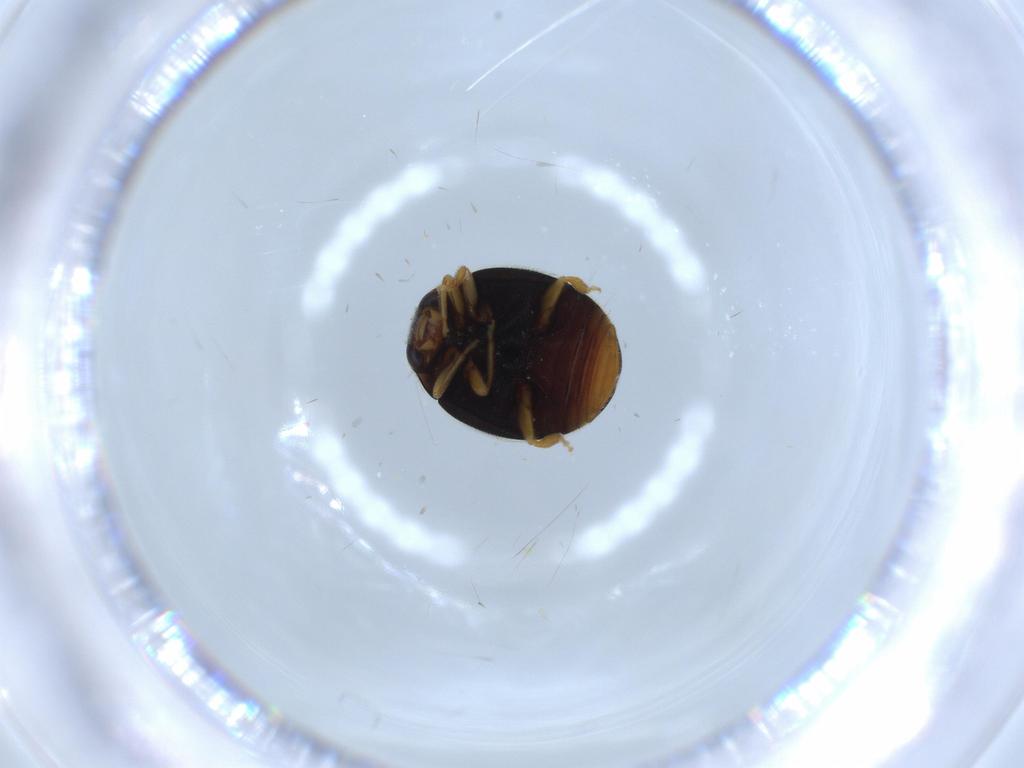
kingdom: Animalia
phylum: Arthropoda
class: Insecta
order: Coleoptera
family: Coccinellidae
